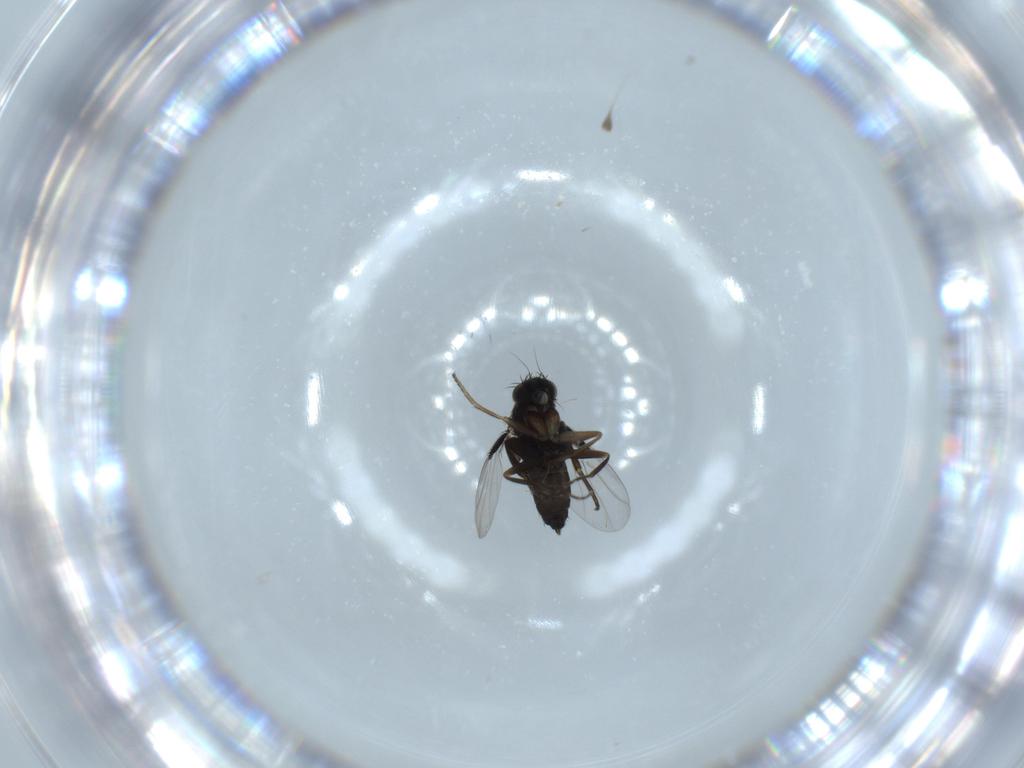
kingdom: Animalia
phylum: Arthropoda
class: Insecta
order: Diptera
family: Phoridae
